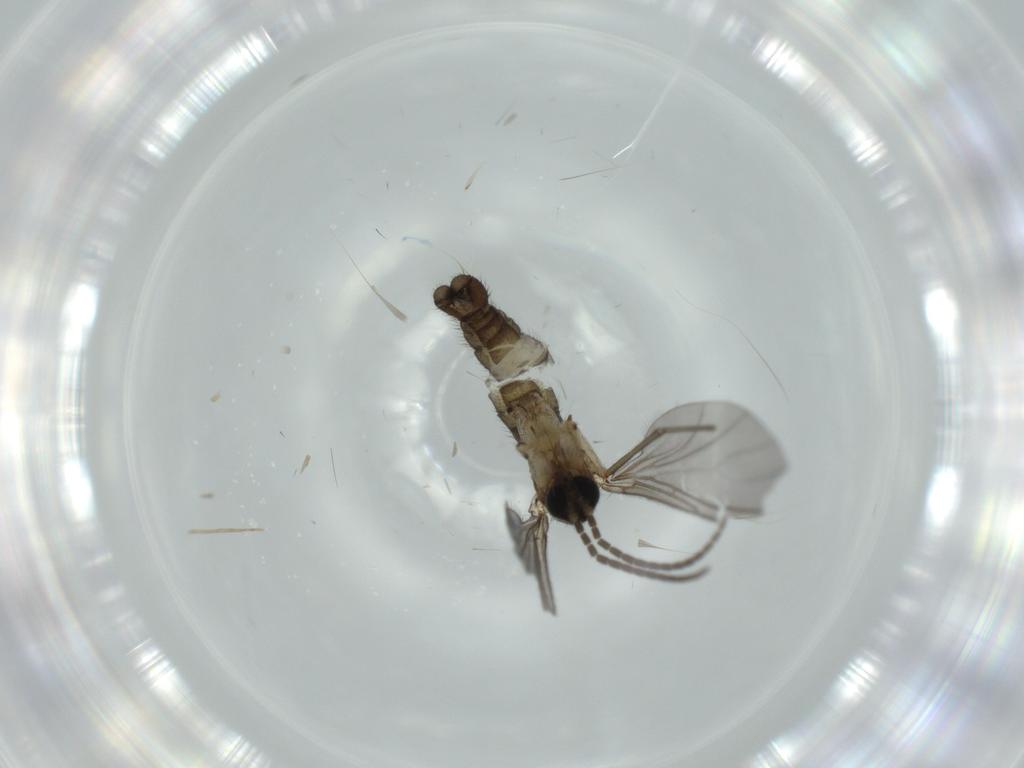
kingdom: Animalia
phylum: Arthropoda
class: Insecta
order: Diptera
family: Sciaridae
